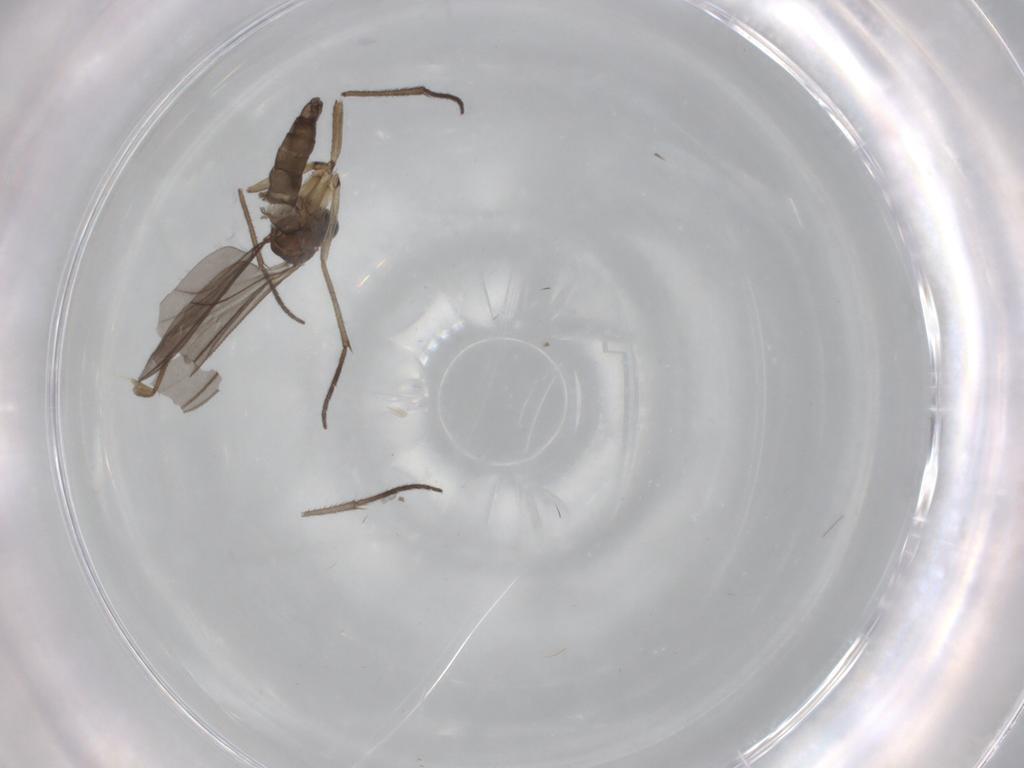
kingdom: Animalia
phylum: Arthropoda
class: Insecta
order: Diptera
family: Sciaridae
